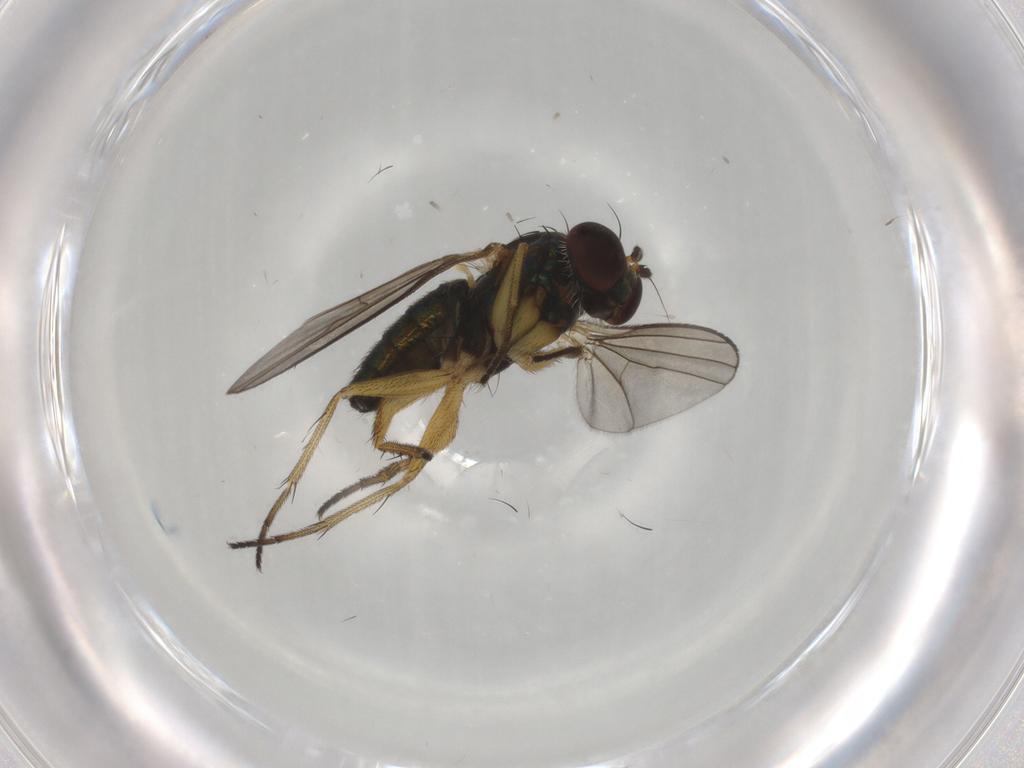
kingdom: Animalia
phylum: Arthropoda
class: Insecta
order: Diptera
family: Dolichopodidae
